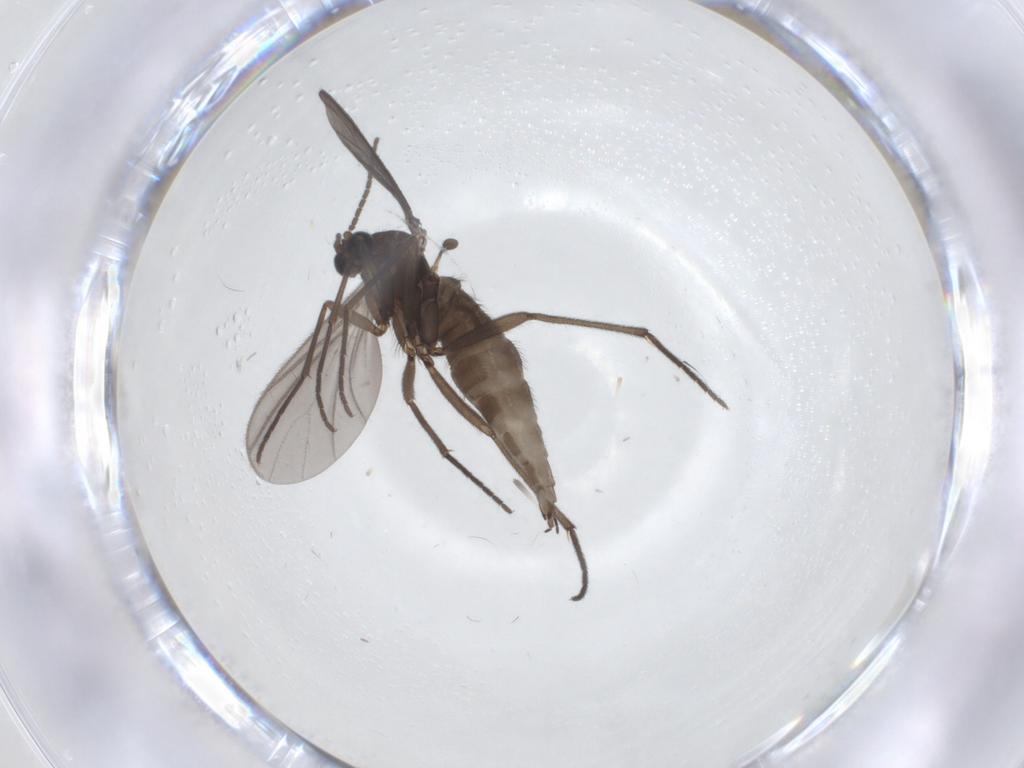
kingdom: Animalia
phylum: Arthropoda
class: Insecta
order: Diptera
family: Sciaridae
